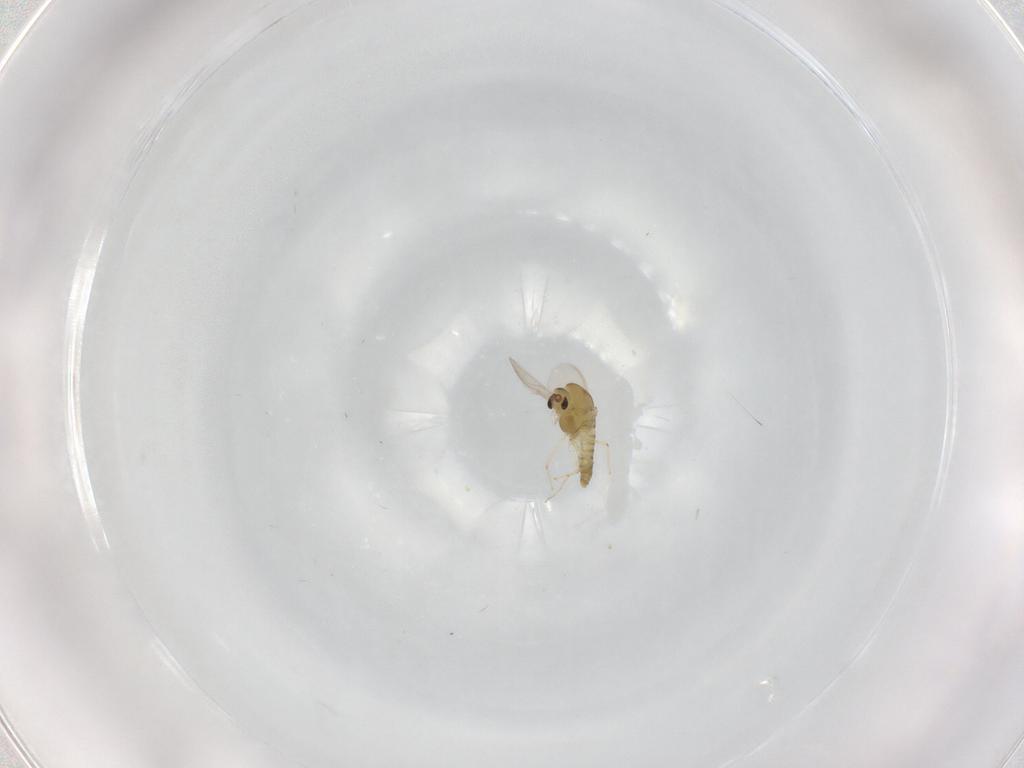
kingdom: Animalia
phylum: Arthropoda
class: Insecta
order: Diptera
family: Chironomidae
